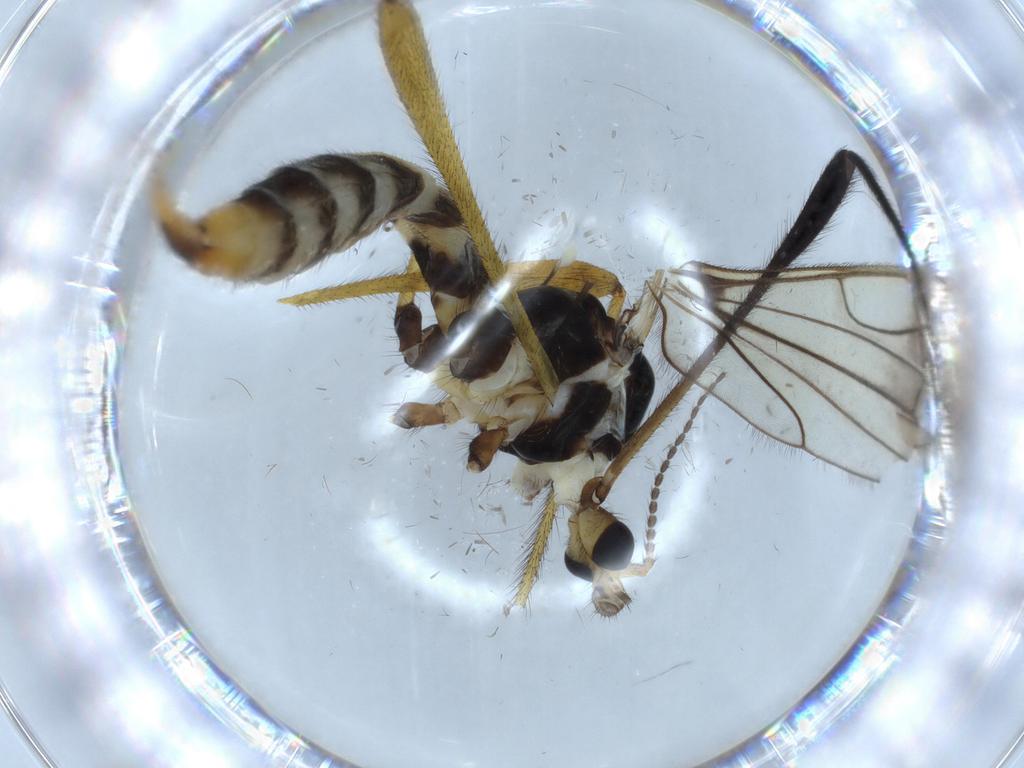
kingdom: Animalia
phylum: Arthropoda
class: Insecta
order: Diptera
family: Limoniidae
